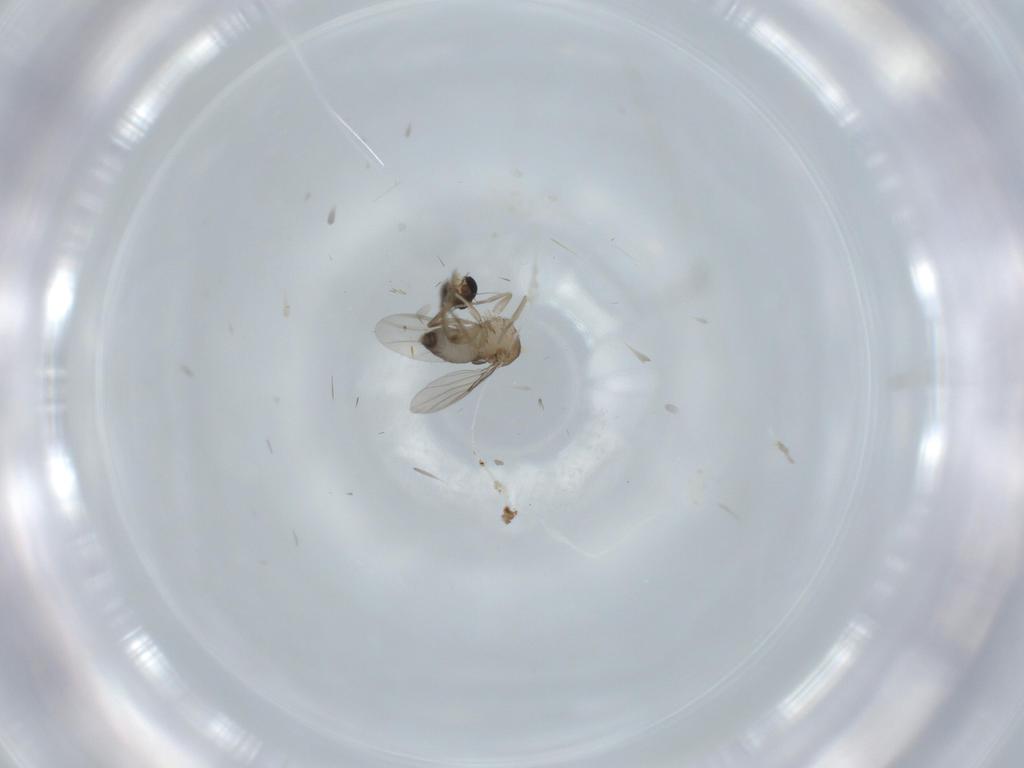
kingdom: Animalia
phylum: Arthropoda
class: Insecta
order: Diptera
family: Phoridae
